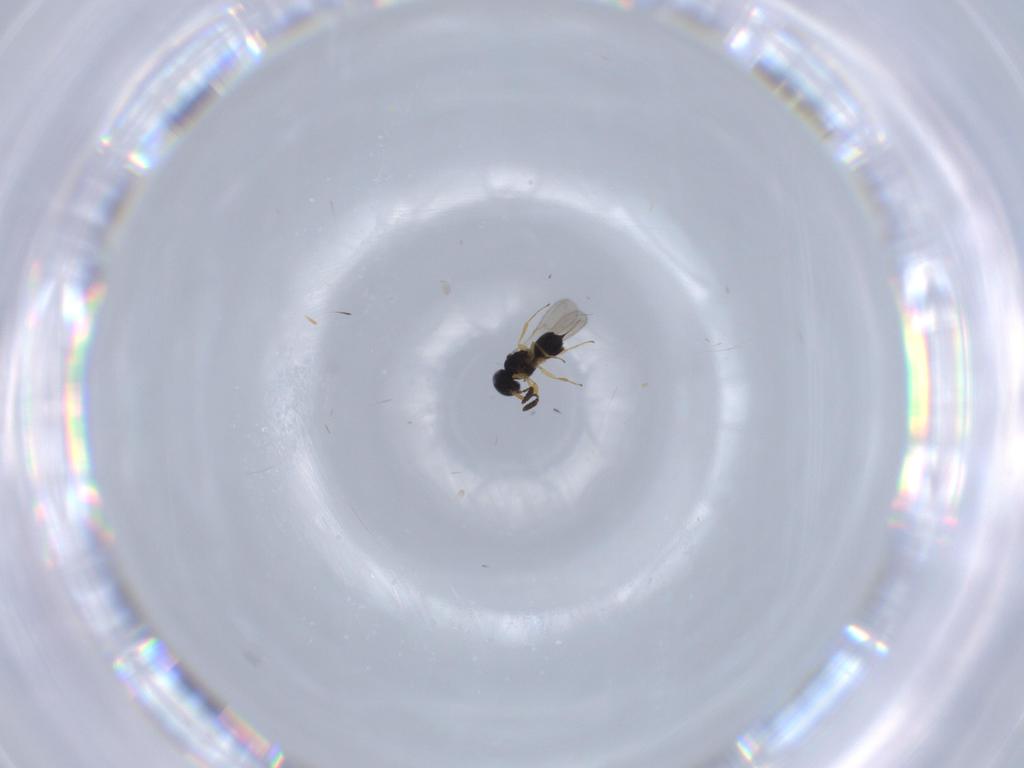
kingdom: Animalia
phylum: Arthropoda
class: Insecta
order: Hymenoptera
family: Scelionidae
